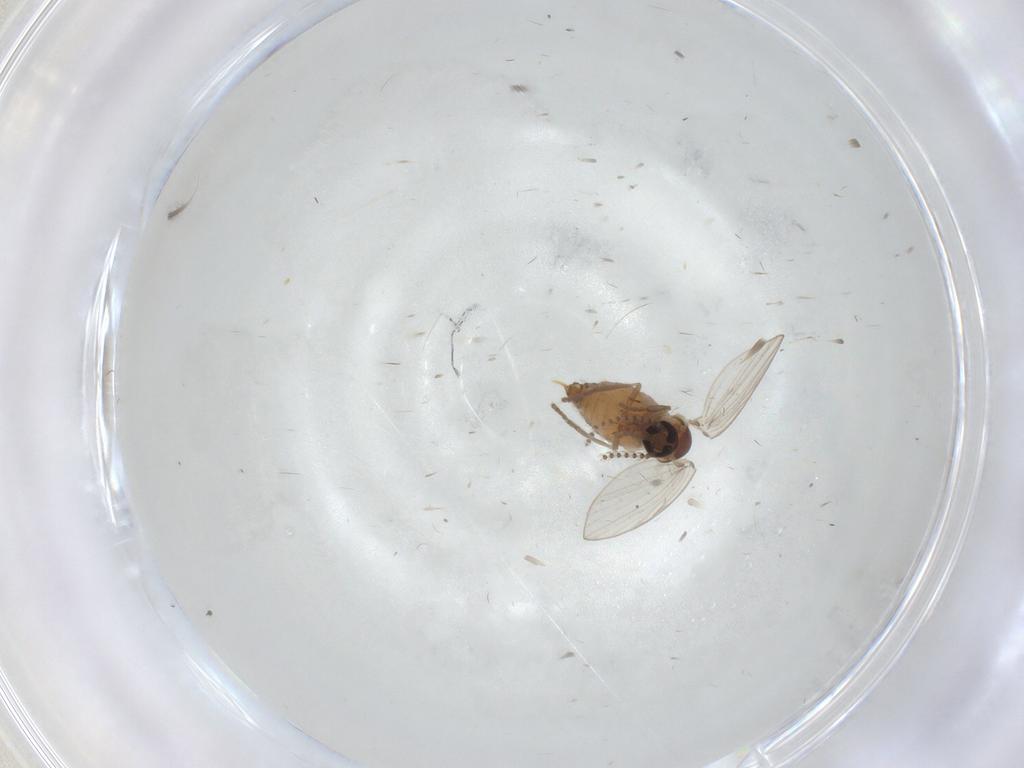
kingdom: Animalia
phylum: Arthropoda
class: Insecta
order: Diptera
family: Psychodidae
